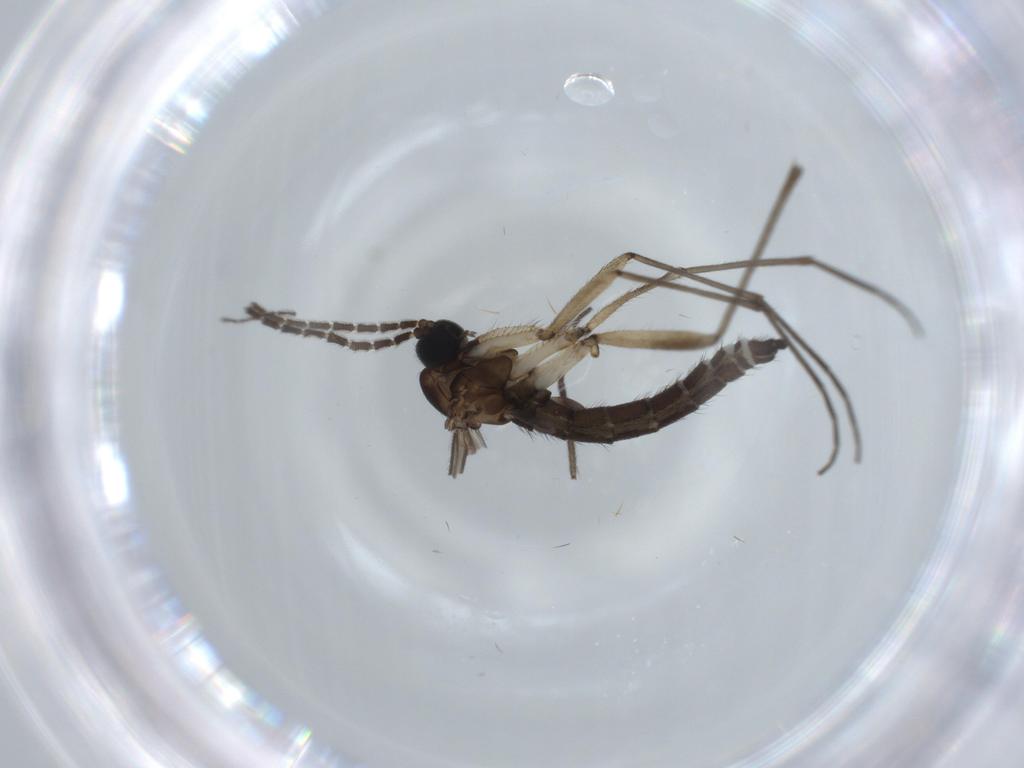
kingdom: Animalia
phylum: Arthropoda
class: Insecta
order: Diptera
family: Sciaridae
